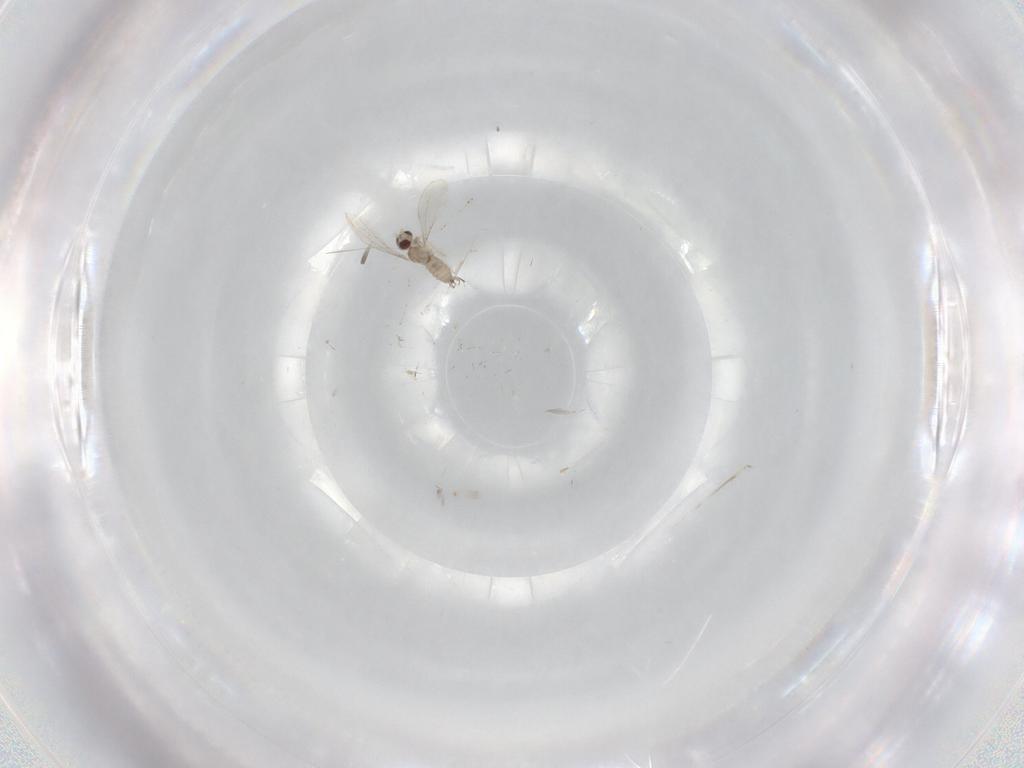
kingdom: Animalia
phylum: Arthropoda
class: Insecta
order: Diptera
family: Cecidomyiidae
